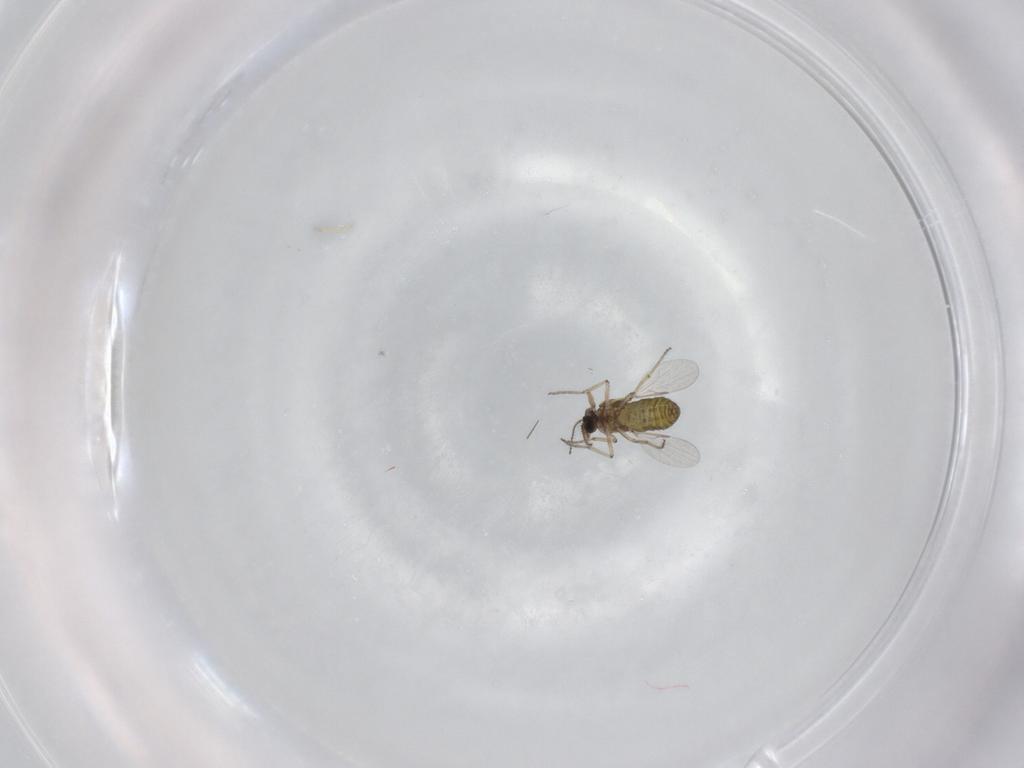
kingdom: Animalia
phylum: Arthropoda
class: Insecta
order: Diptera
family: Ceratopogonidae
